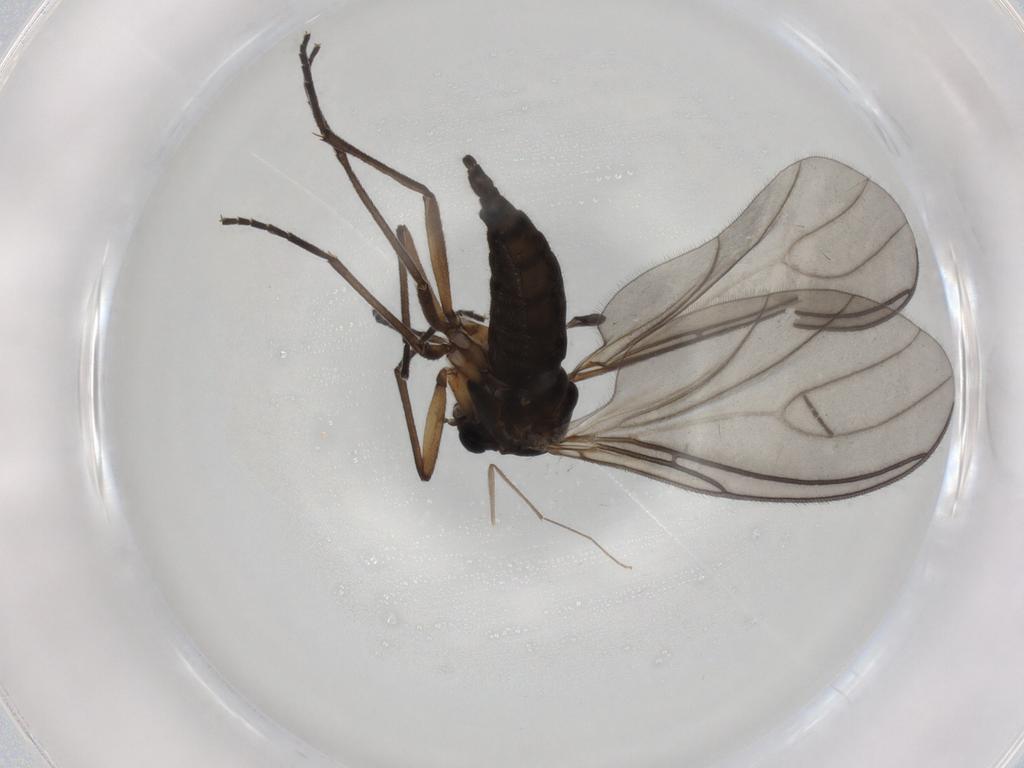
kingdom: Animalia
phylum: Arthropoda
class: Insecta
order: Diptera
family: Sciaridae
